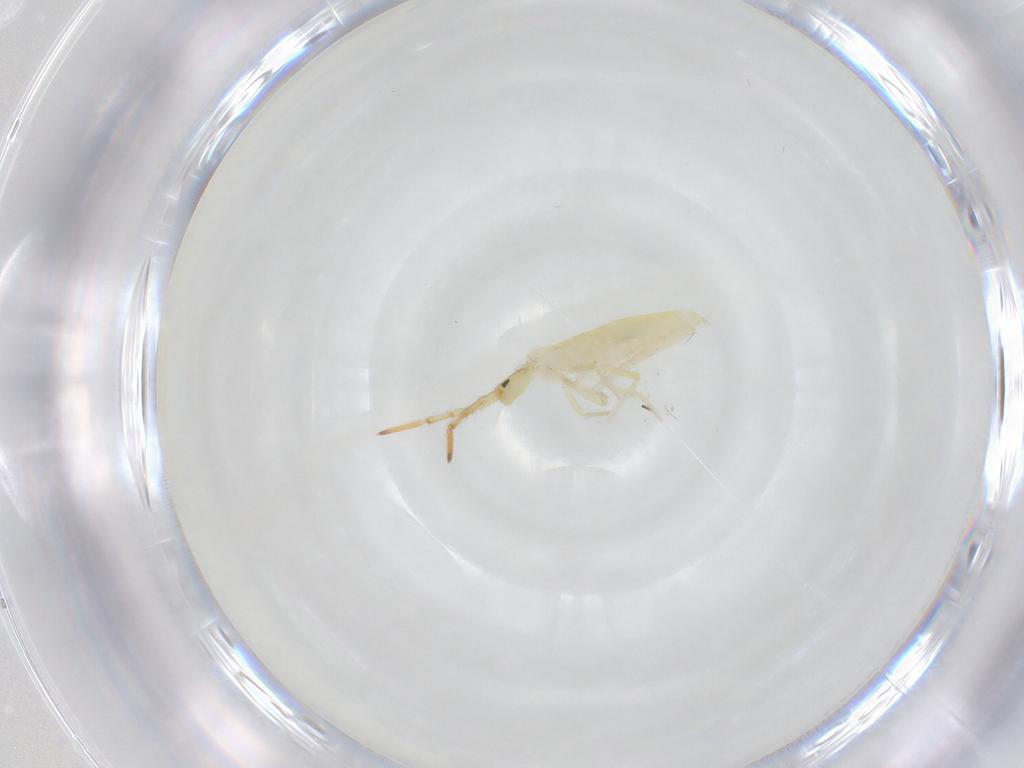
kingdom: Animalia
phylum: Arthropoda
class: Collembola
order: Entomobryomorpha
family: Entomobryidae
